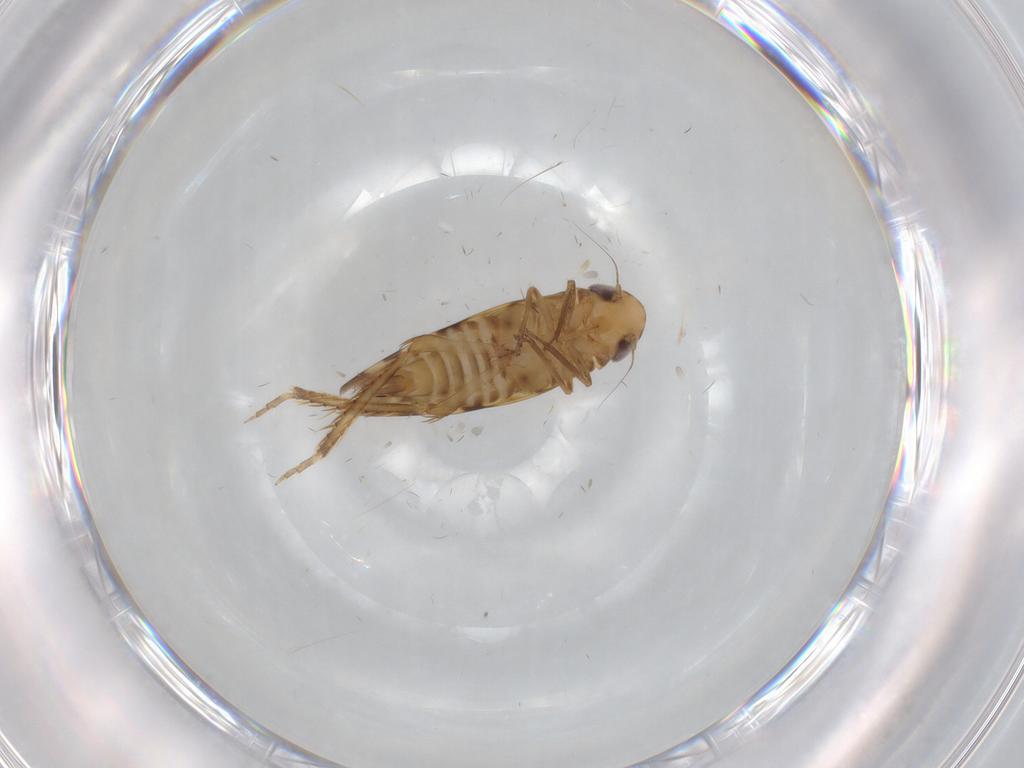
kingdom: Animalia
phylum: Arthropoda
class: Insecta
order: Hemiptera
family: Cicadellidae
